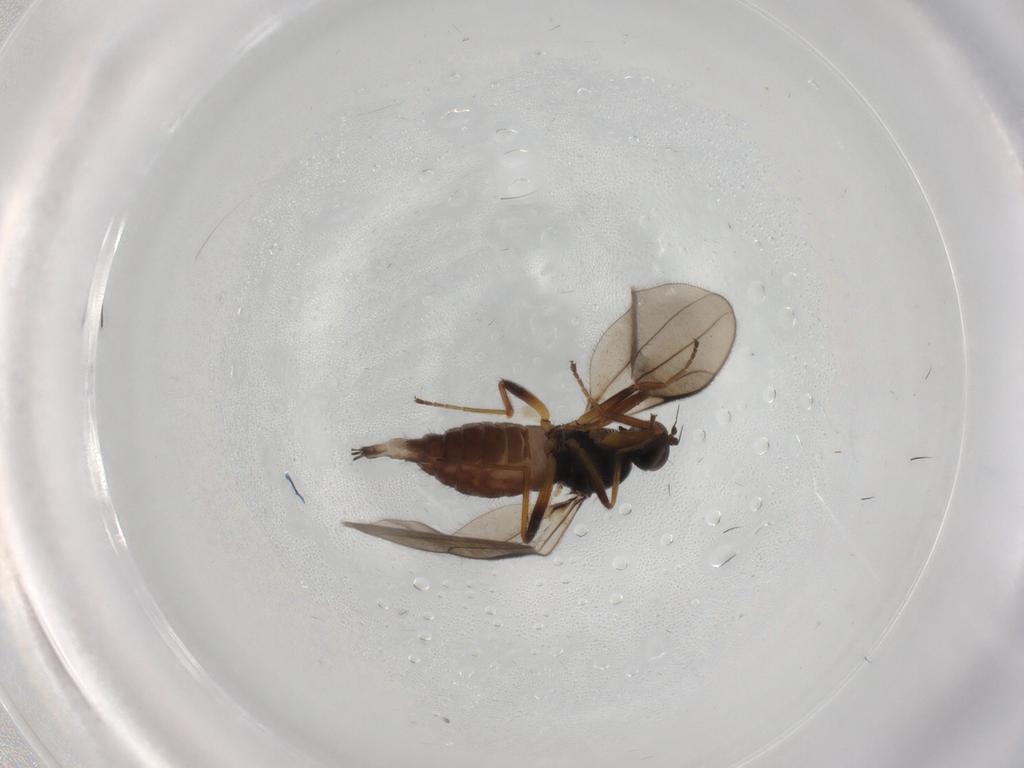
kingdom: Animalia
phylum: Arthropoda
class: Insecta
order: Diptera
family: Hybotidae
